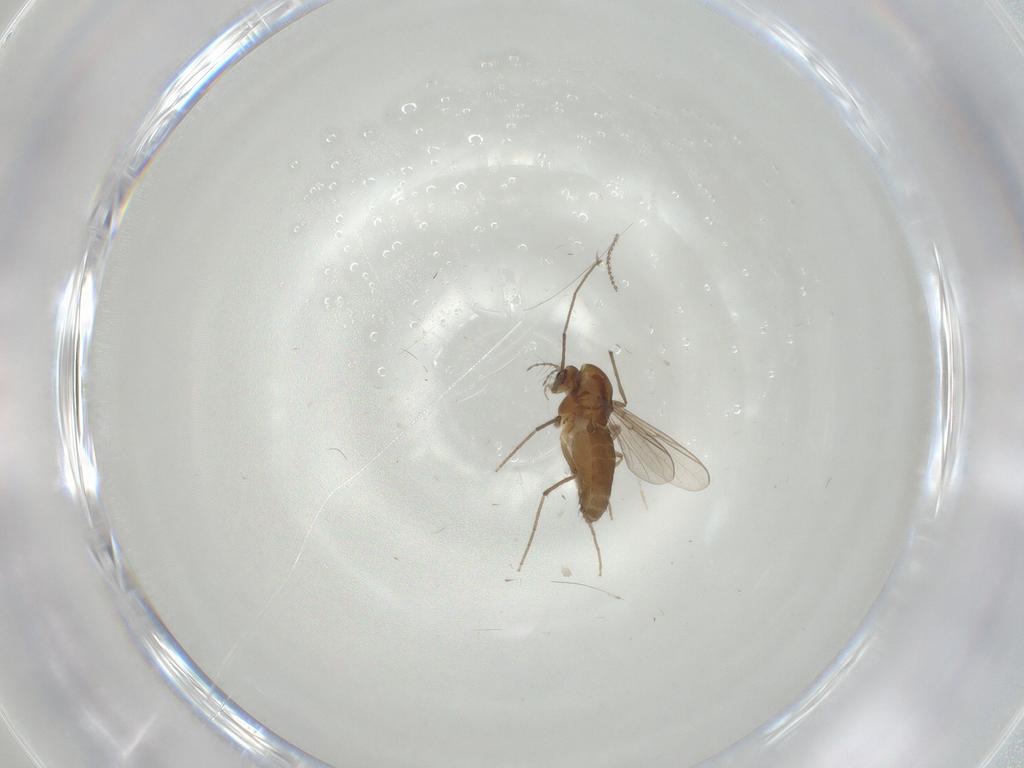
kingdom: Animalia
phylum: Arthropoda
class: Insecta
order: Diptera
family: Chironomidae
